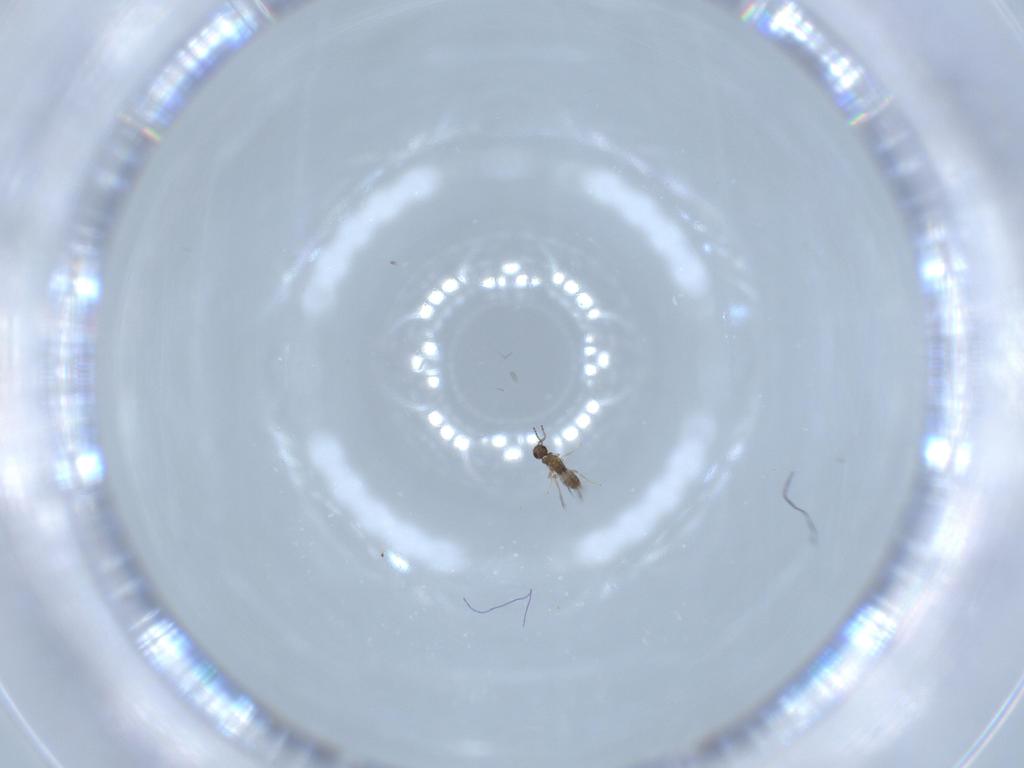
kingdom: Animalia
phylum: Arthropoda
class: Insecta
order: Hymenoptera
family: Mymaridae
